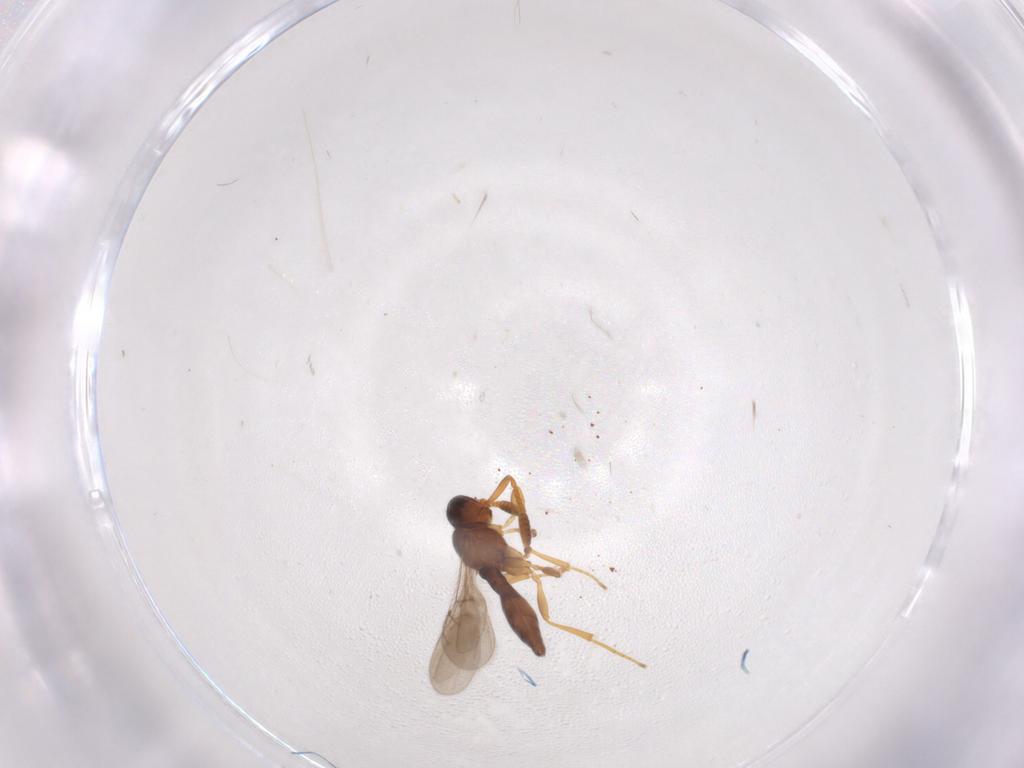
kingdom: Animalia
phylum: Arthropoda
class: Insecta
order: Hymenoptera
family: Scelionidae
